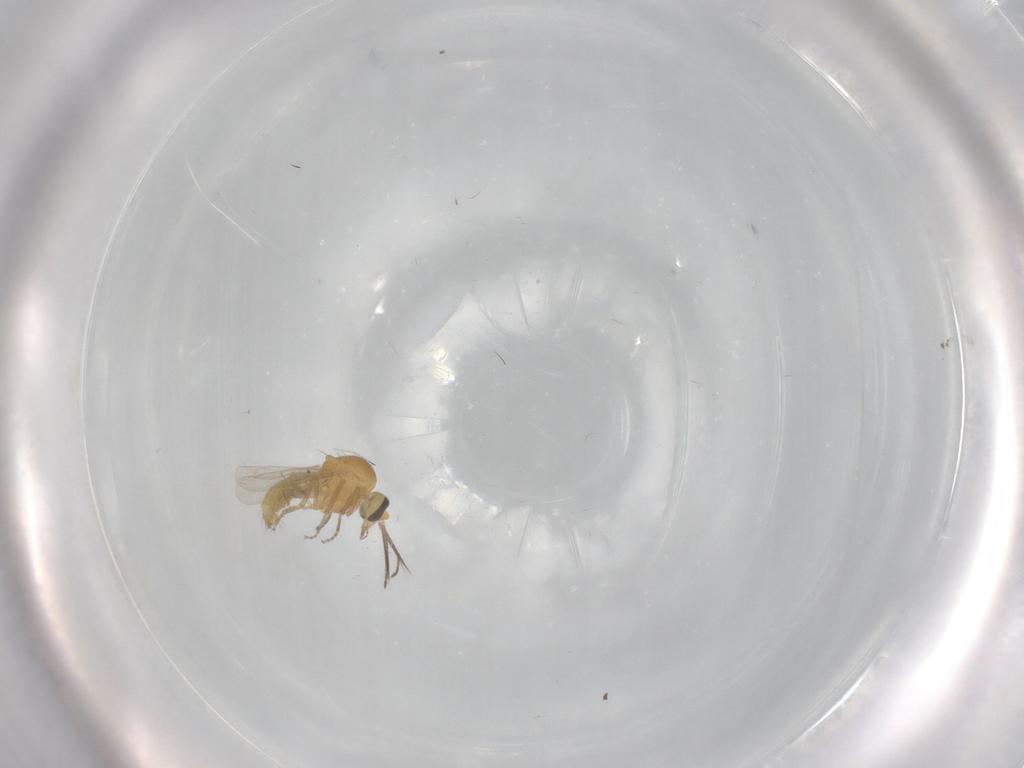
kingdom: Animalia
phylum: Arthropoda
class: Insecta
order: Diptera
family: Ceratopogonidae
